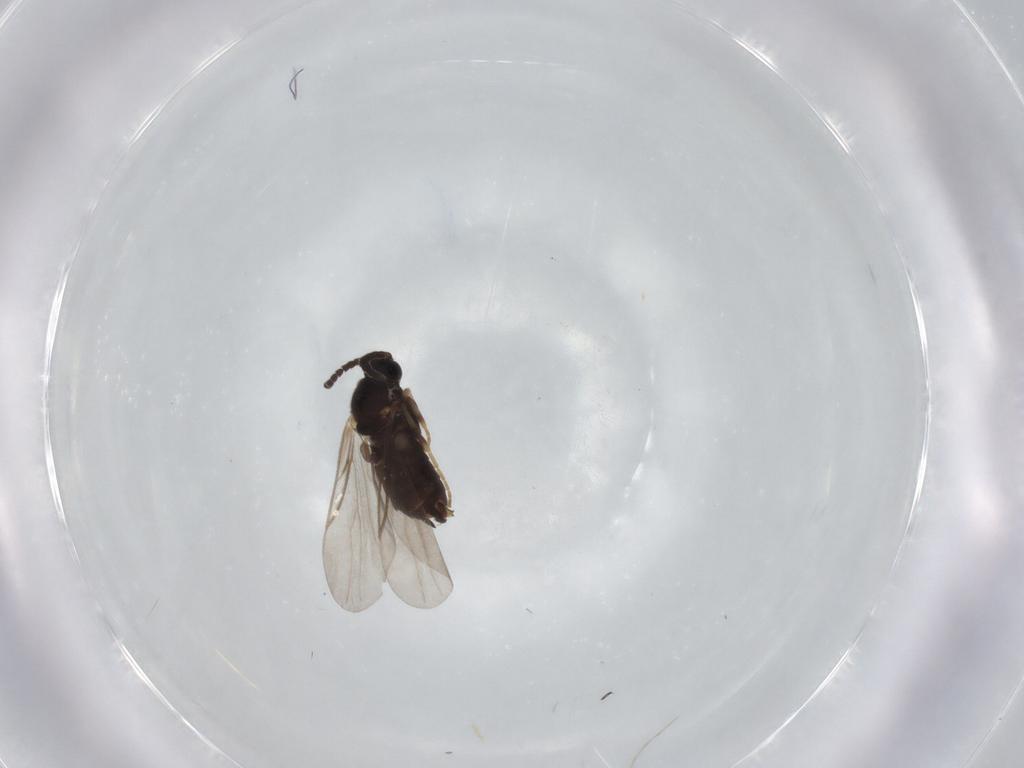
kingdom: Animalia
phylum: Arthropoda
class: Insecta
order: Diptera
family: Scatopsidae
